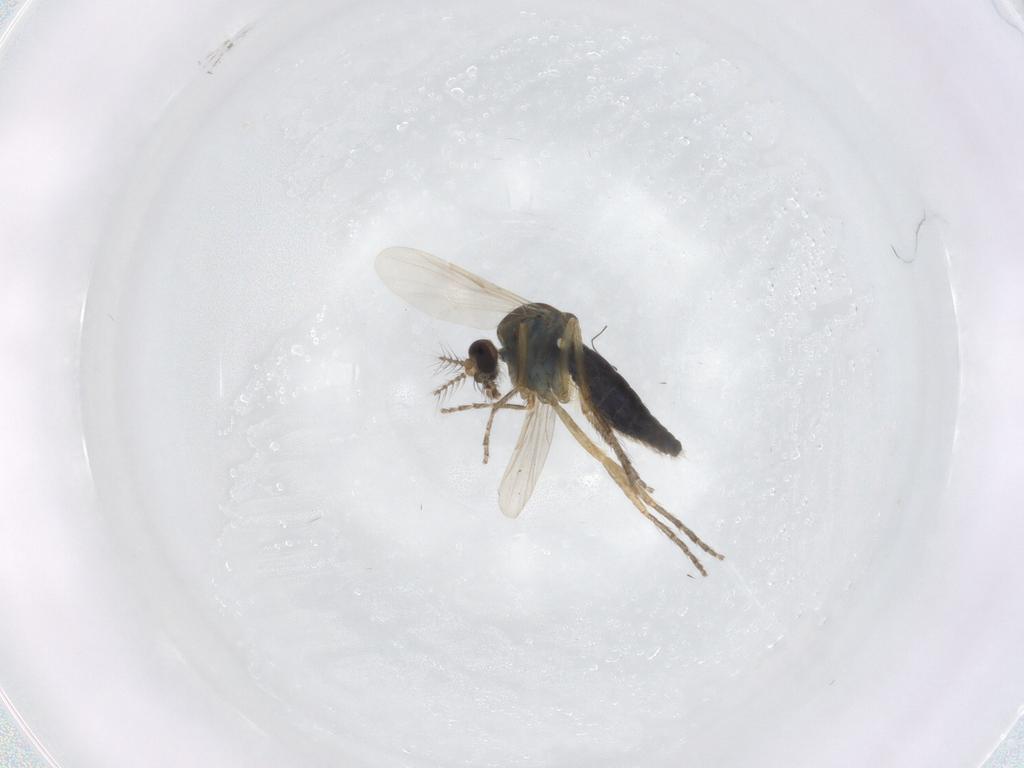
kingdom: Animalia
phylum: Arthropoda
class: Insecta
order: Diptera
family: Ceratopogonidae
